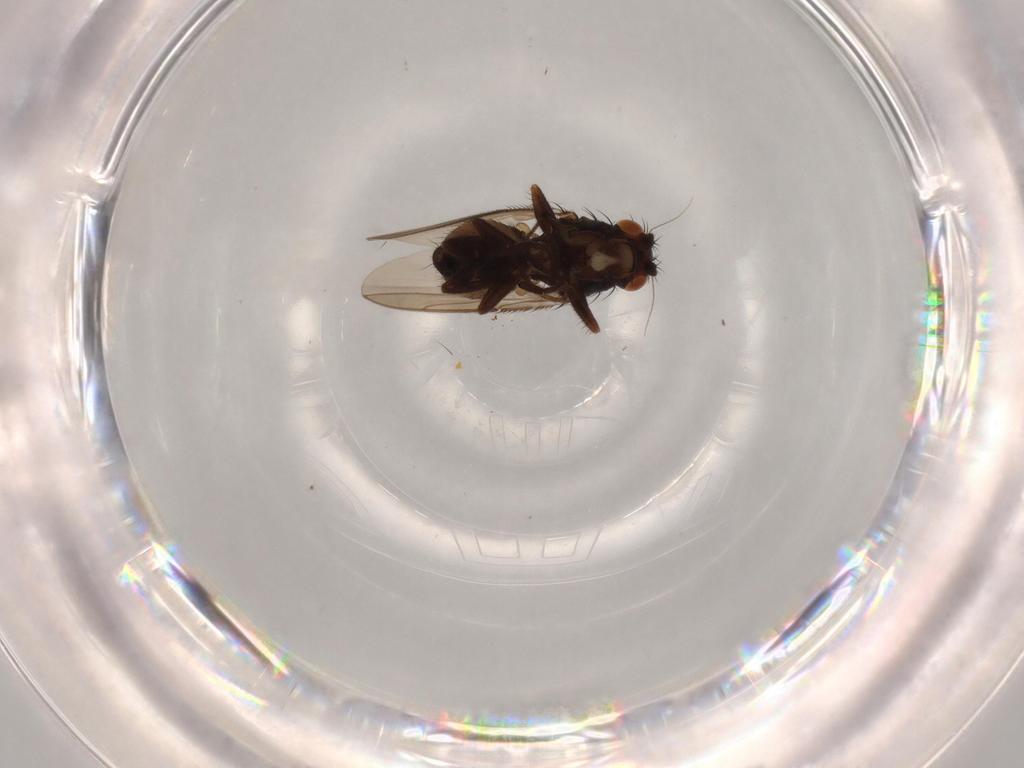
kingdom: Animalia
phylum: Arthropoda
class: Insecta
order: Diptera
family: Sphaeroceridae
